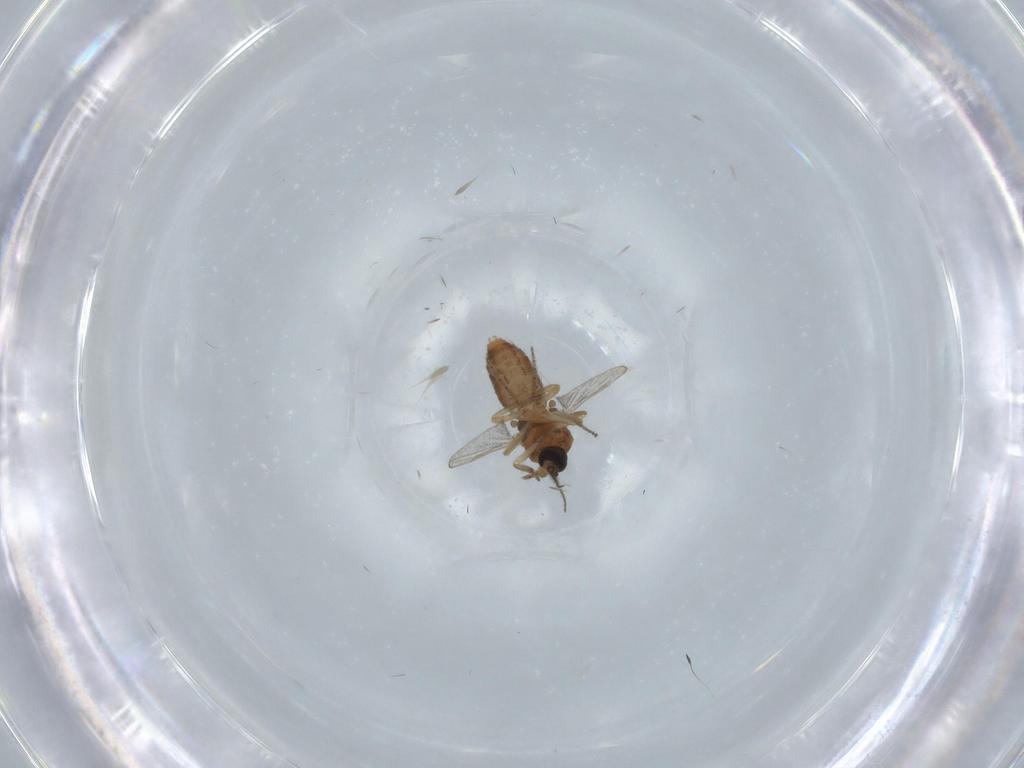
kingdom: Animalia
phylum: Arthropoda
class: Insecta
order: Diptera
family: Ceratopogonidae
